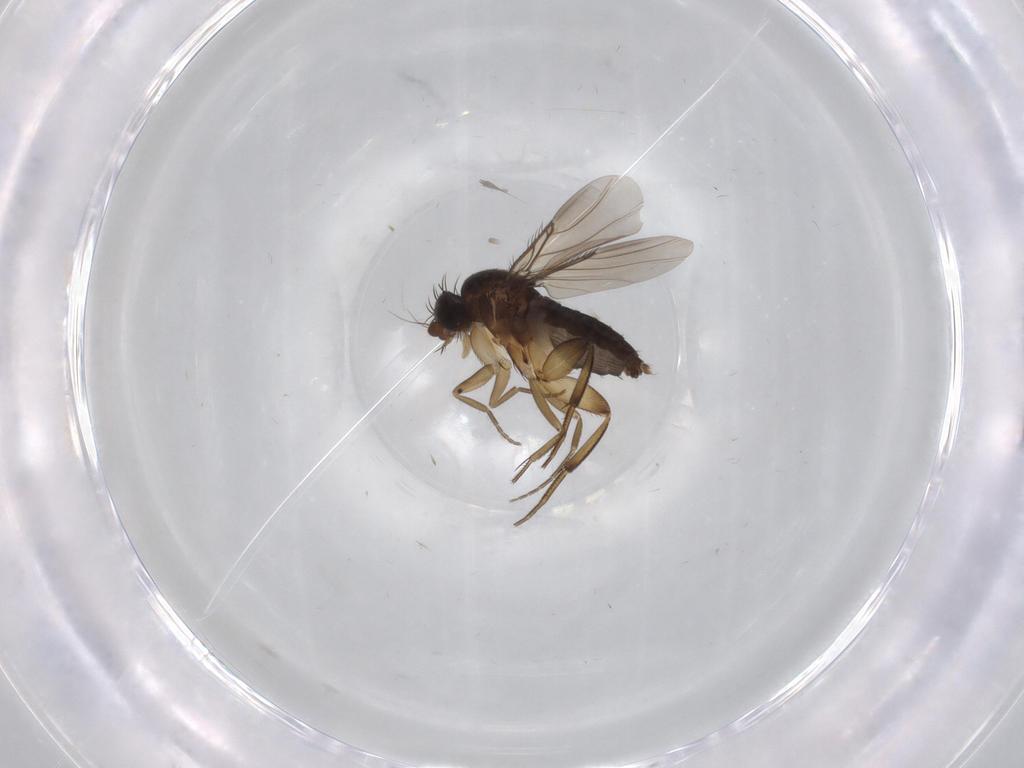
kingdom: Animalia
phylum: Arthropoda
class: Insecta
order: Diptera
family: Phoridae
